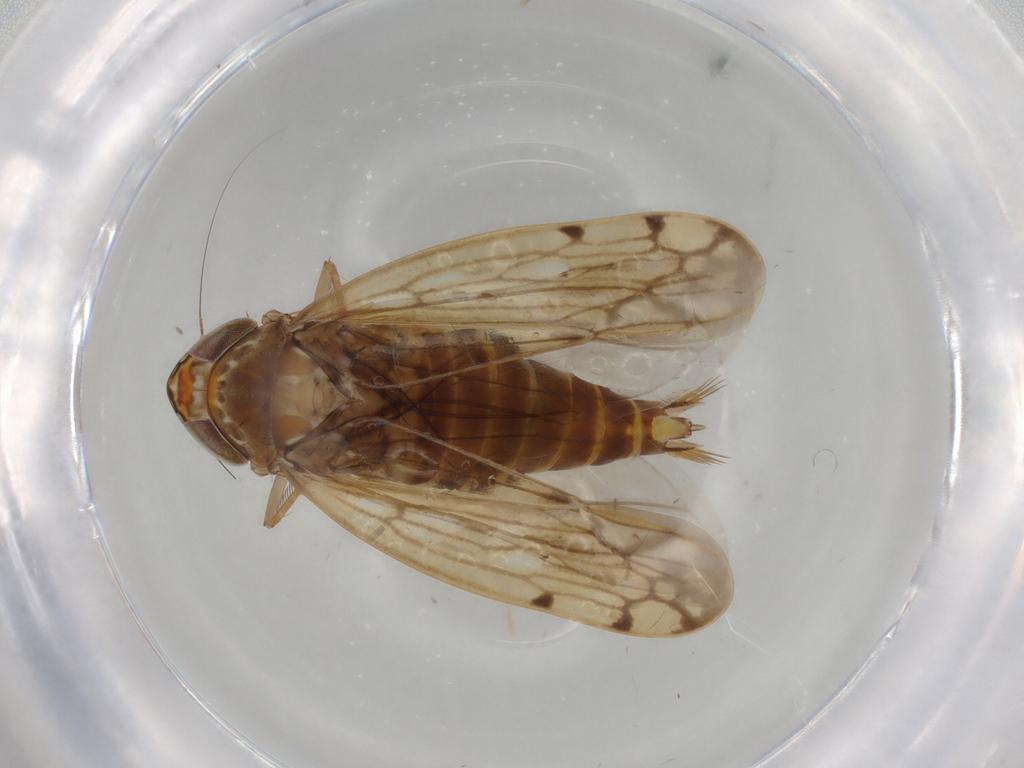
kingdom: Animalia
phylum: Arthropoda
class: Insecta
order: Hemiptera
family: Cicadellidae
